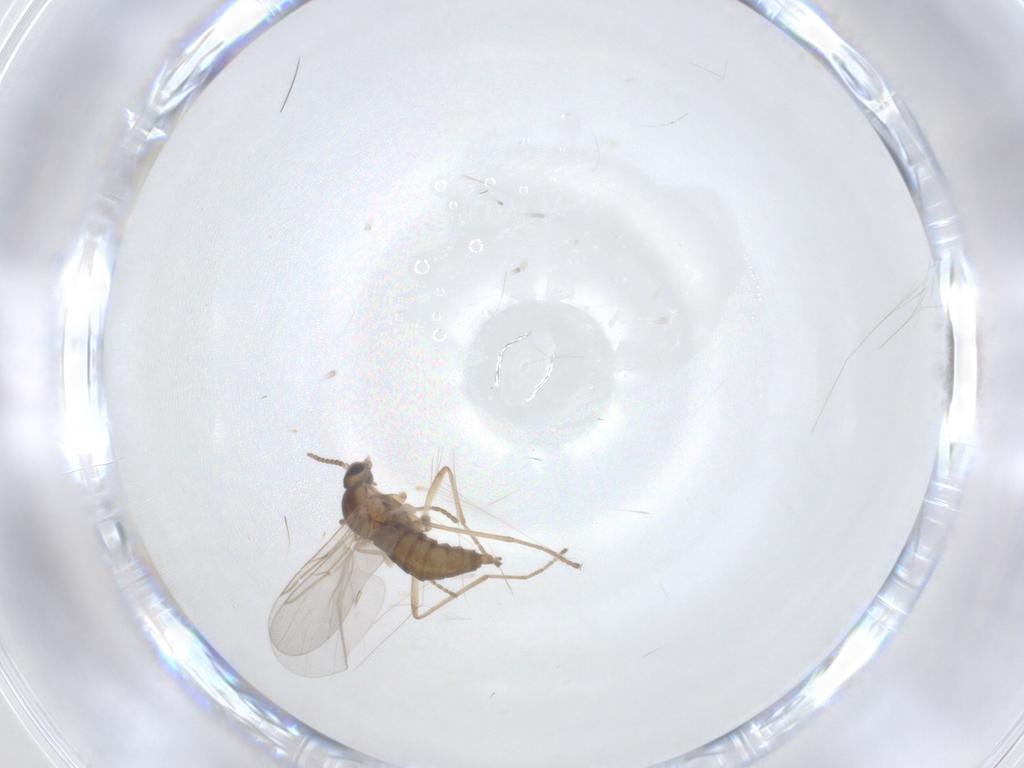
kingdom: Animalia
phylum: Arthropoda
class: Insecta
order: Diptera
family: Cecidomyiidae
